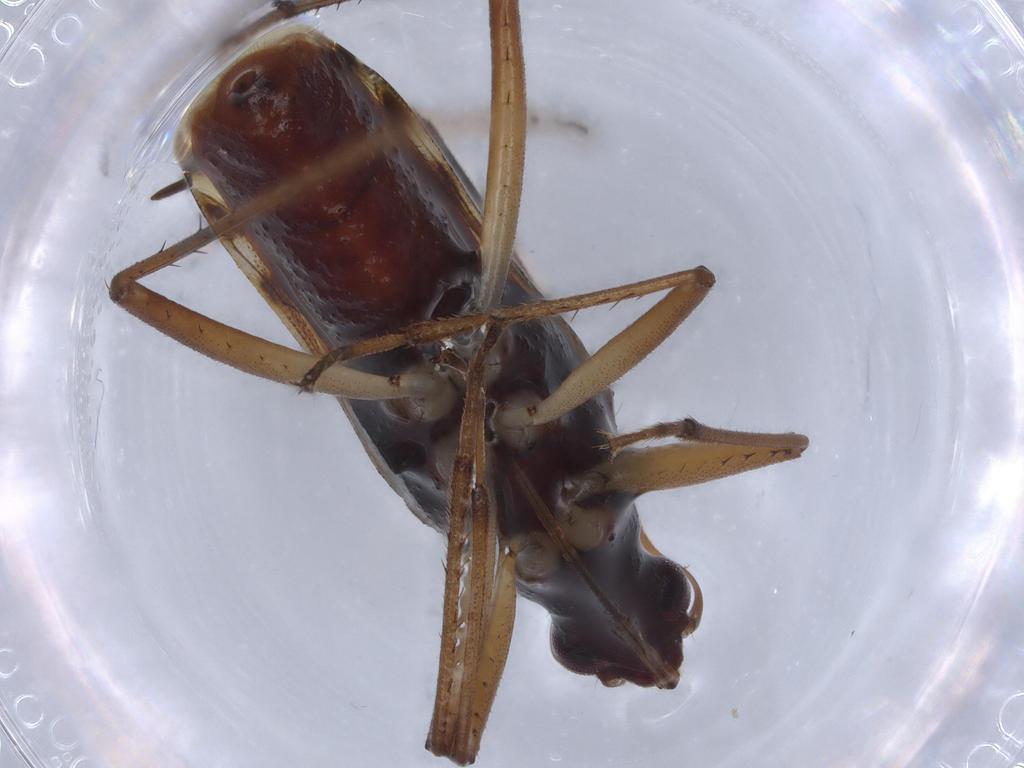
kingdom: Animalia
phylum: Arthropoda
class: Insecta
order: Hemiptera
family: Rhyparochromidae
